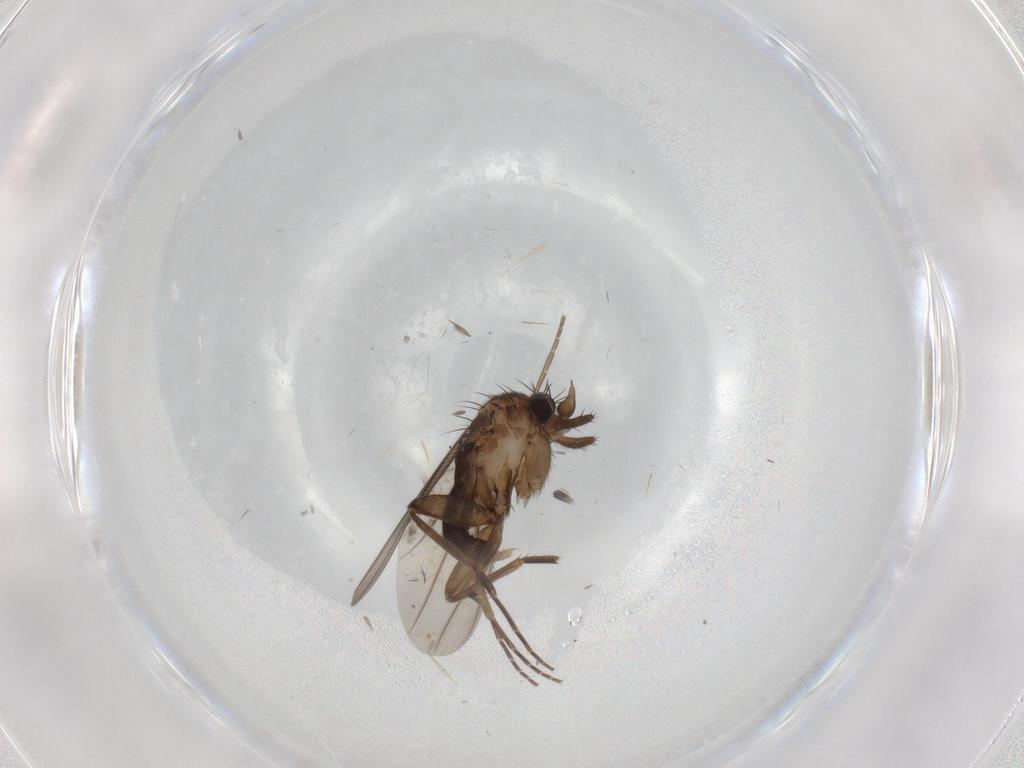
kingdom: Animalia
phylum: Arthropoda
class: Insecta
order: Diptera
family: Phoridae
